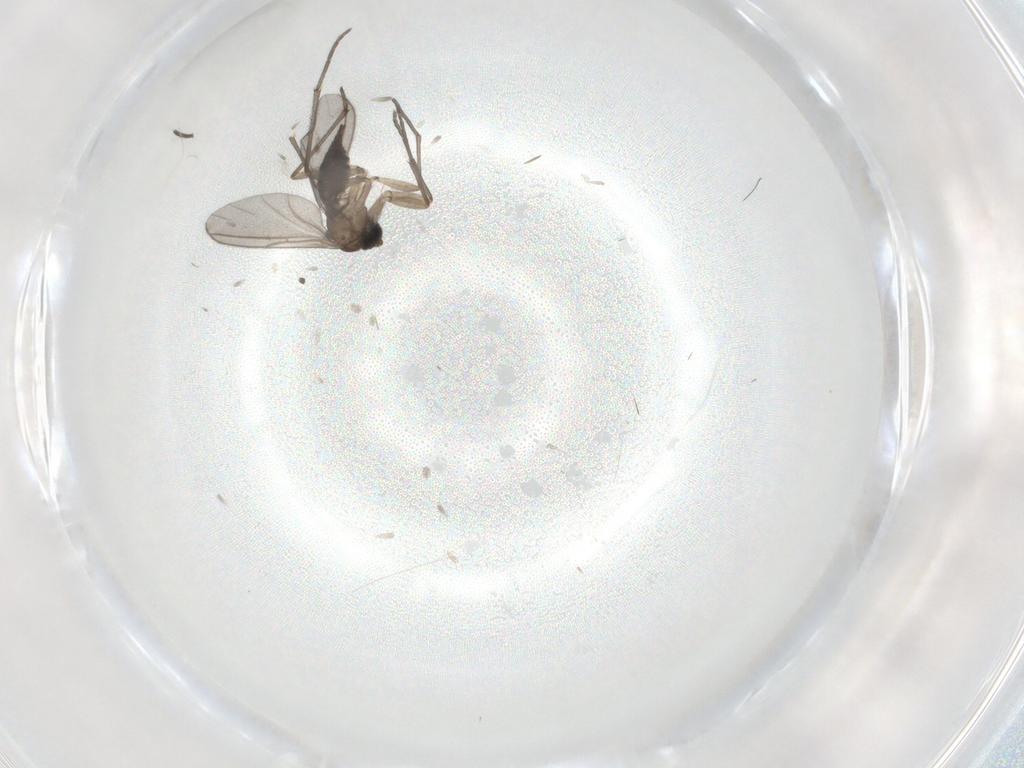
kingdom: Animalia
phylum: Arthropoda
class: Insecta
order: Diptera
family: Sciaridae
